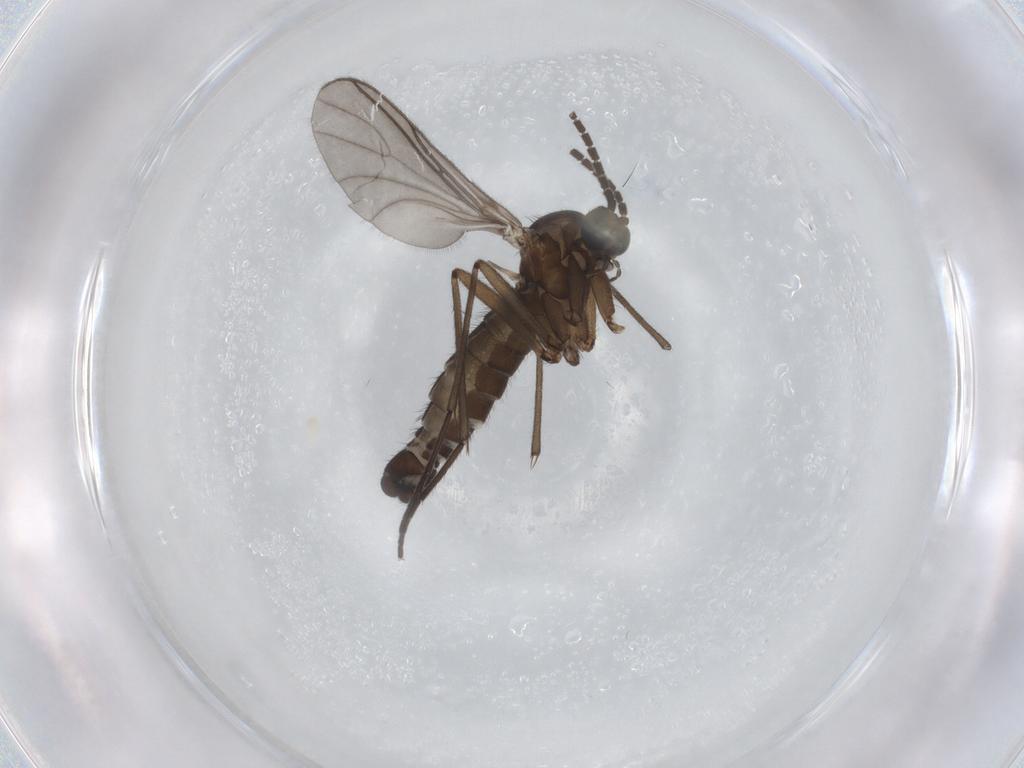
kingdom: Animalia
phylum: Arthropoda
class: Insecta
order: Diptera
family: Sciaridae
